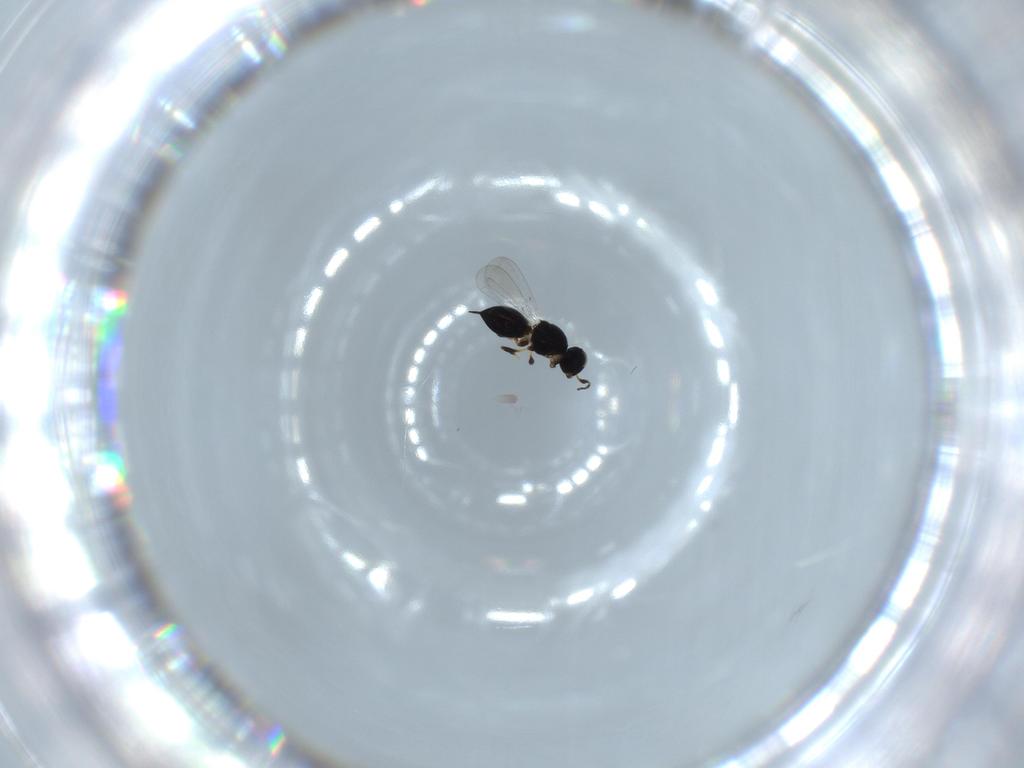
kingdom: Animalia
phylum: Arthropoda
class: Insecta
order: Hymenoptera
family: Platygastridae
